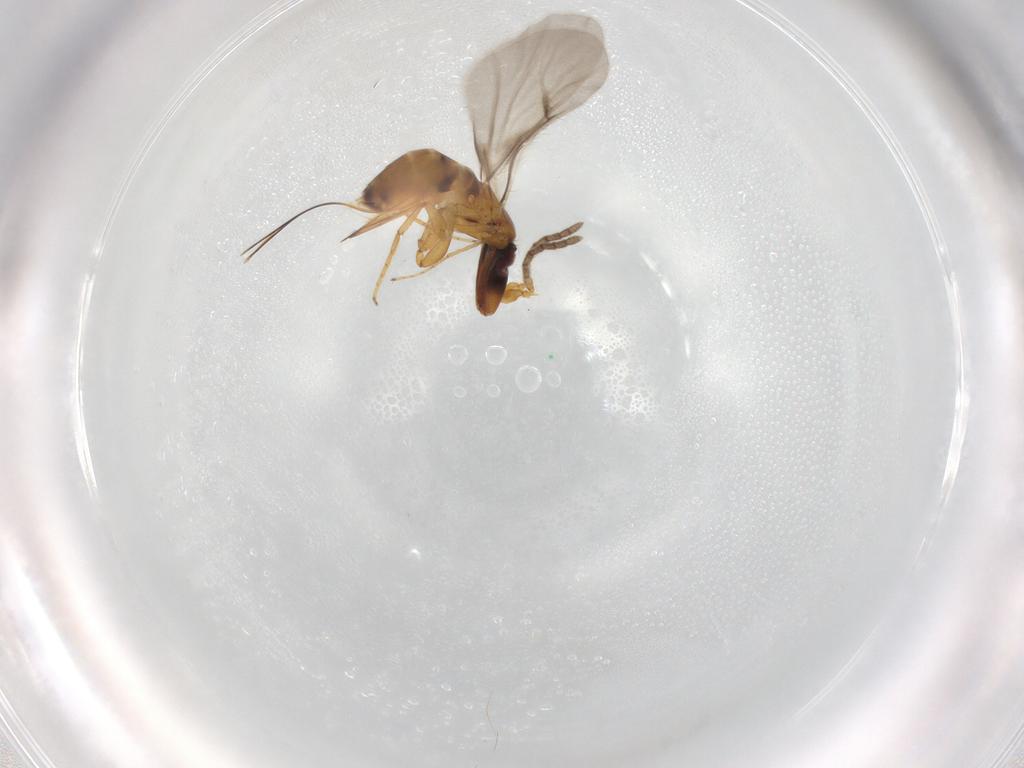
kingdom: Animalia
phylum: Arthropoda
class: Insecta
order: Hymenoptera
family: Agaonidae
